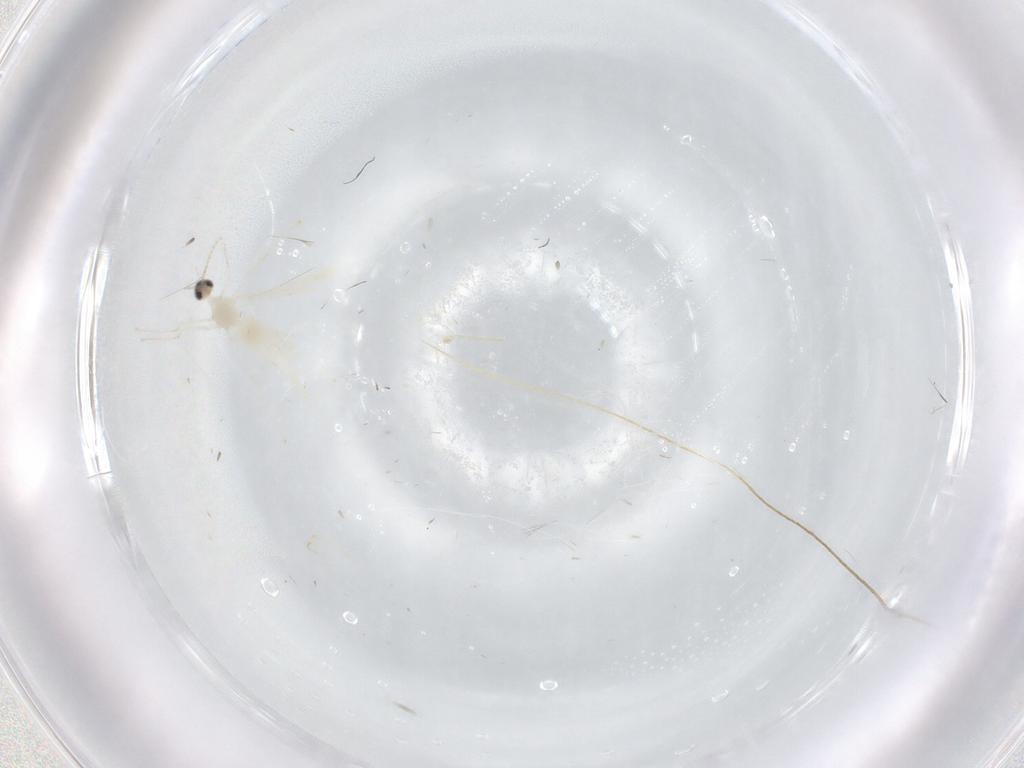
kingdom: Animalia
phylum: Arthropoda
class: Insecta
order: Diptera
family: Cecidomyiidae
